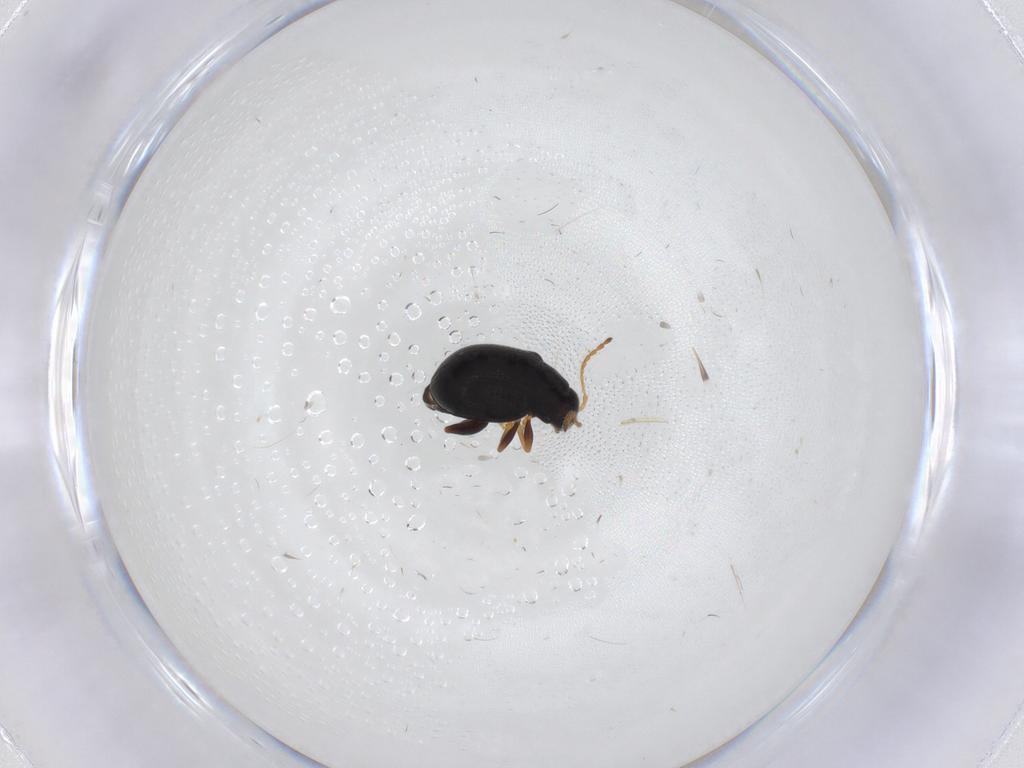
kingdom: Animalia
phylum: Arthropoda
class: Insecta
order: Coleoptera
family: Chrysomelidae
